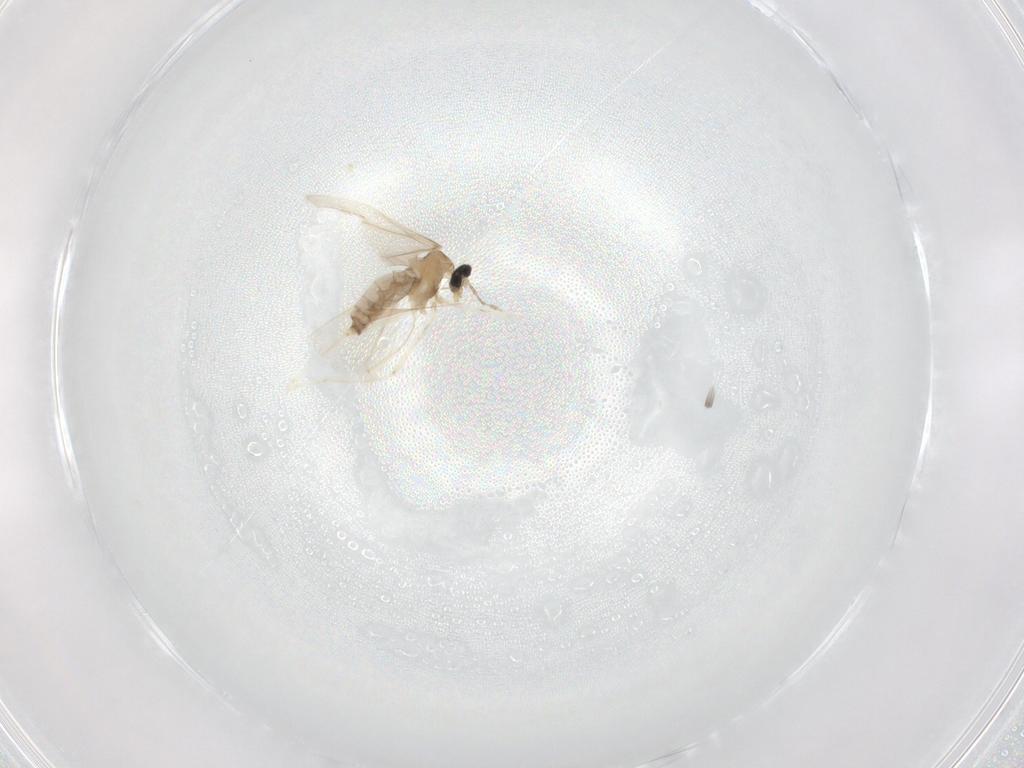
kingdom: Animalia
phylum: Arthropoda
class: Insecta
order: Diptera
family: Cecidomyiidae
